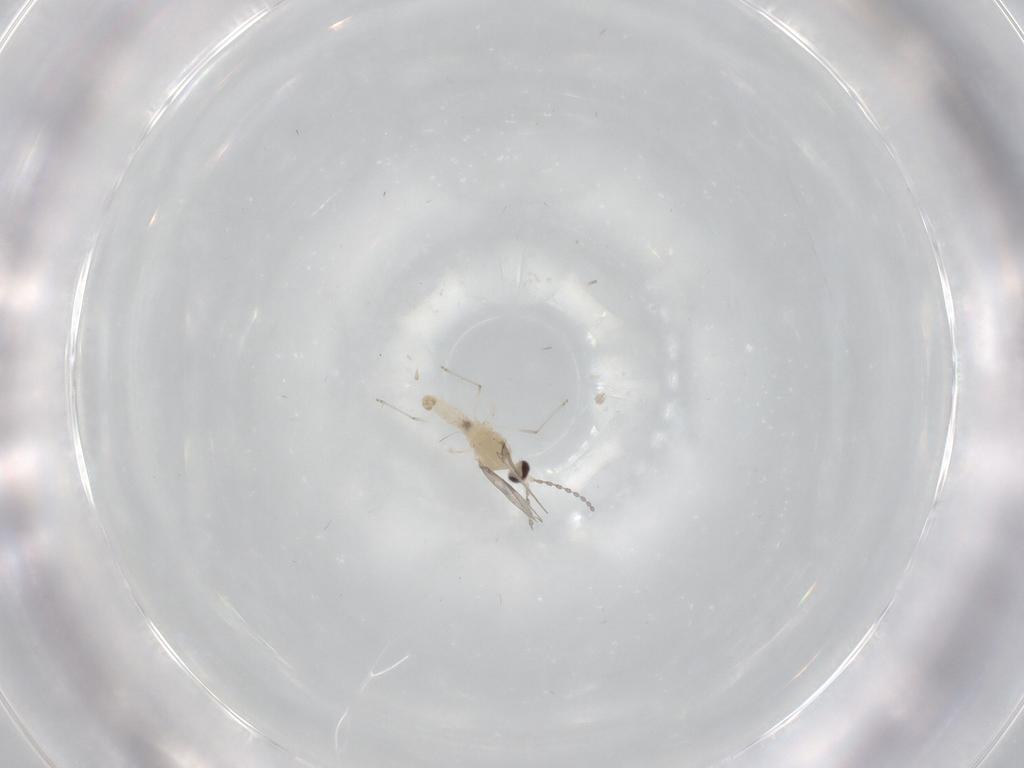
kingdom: Animalia
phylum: Arthropoda
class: Insecta
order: Diptera
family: Cecidomyiidae
